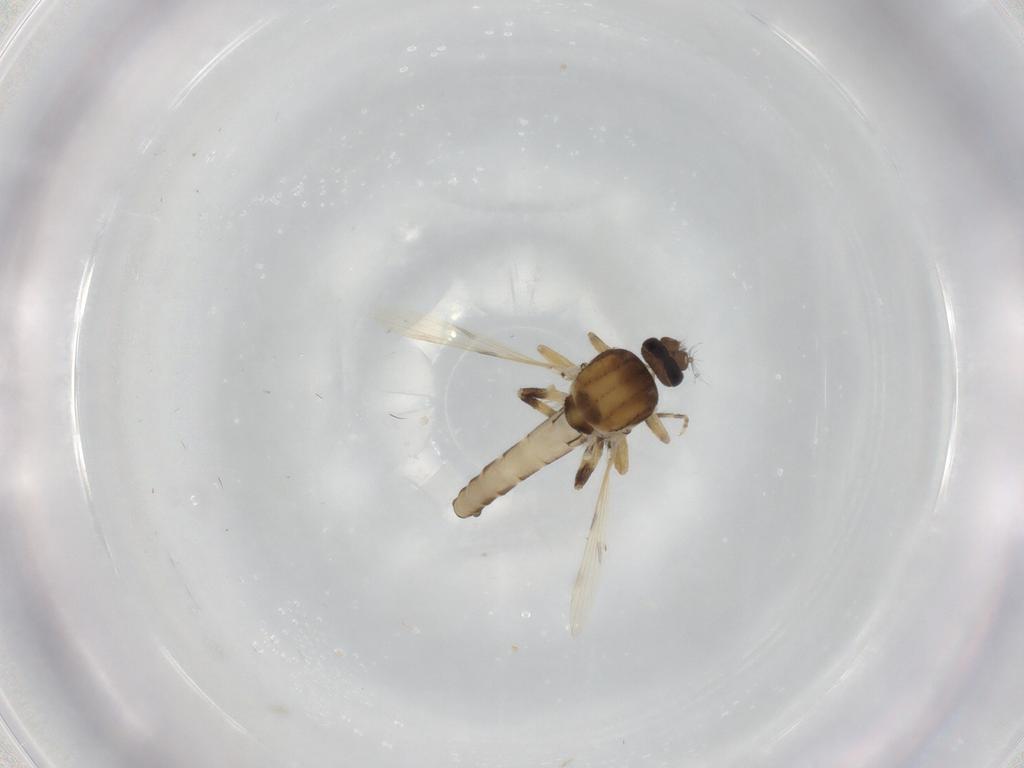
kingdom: Animalia
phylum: Arthropoda
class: Insecta
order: Diptera
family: Ceratopogonidae
